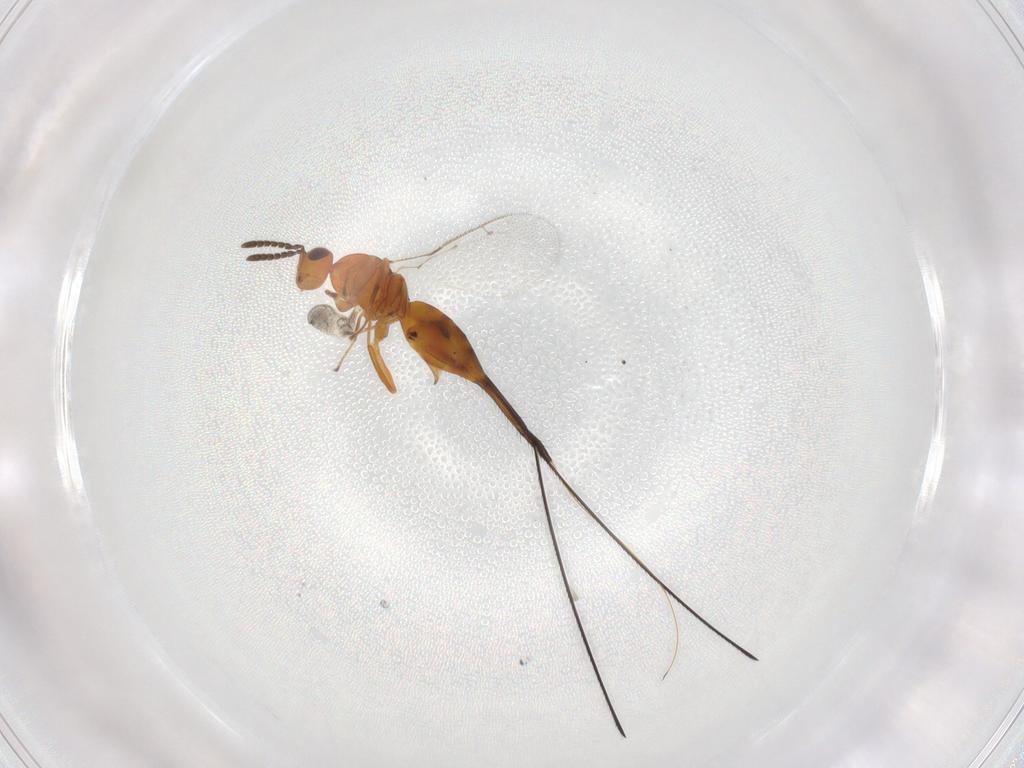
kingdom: Animalia
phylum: Arthropoda
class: Insecta
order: Hymenoptera
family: Pteromalidae
